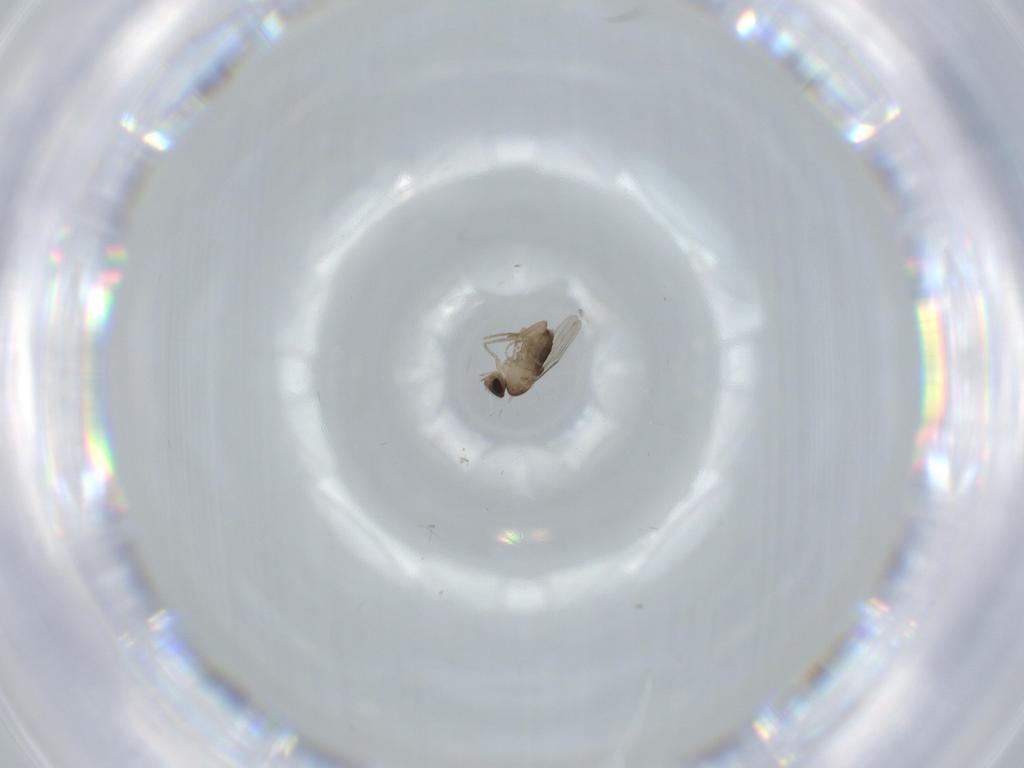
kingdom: Animalia
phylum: Arthropoda
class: Insecta
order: Diptera
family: Phoridae
